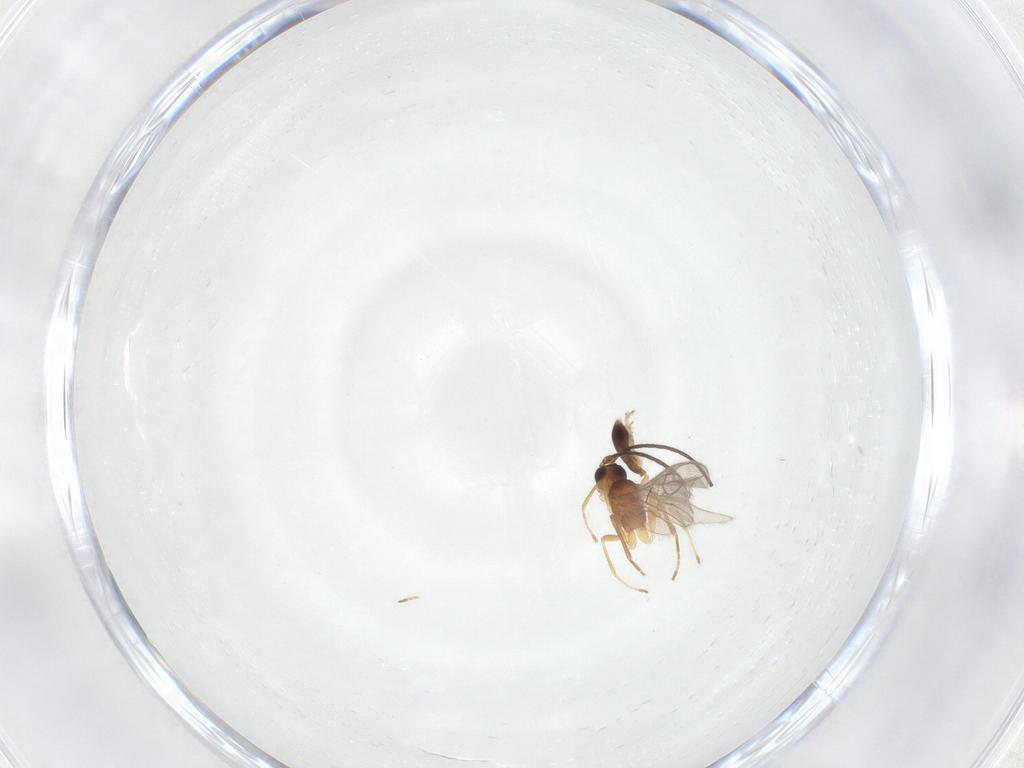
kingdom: Animalia
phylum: Arthropoda
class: Insecta
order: Hymenoptera
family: Braconidae
